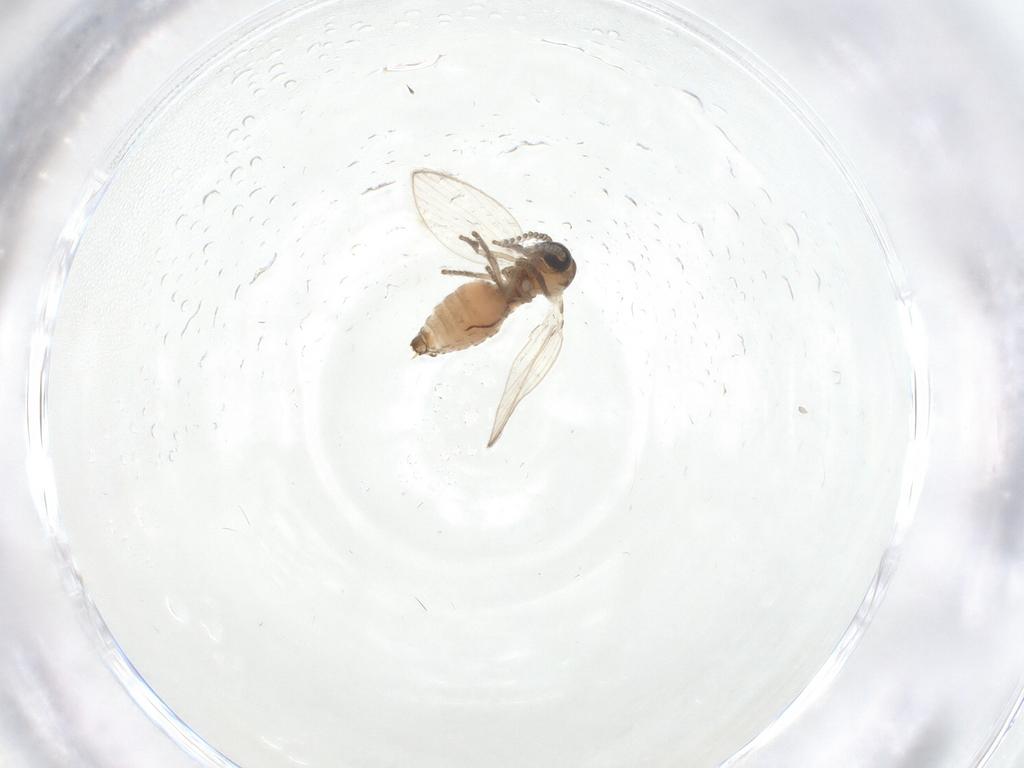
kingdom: Animalia
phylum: Arthropoda
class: Insecta
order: Diptera
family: Psychodidae
